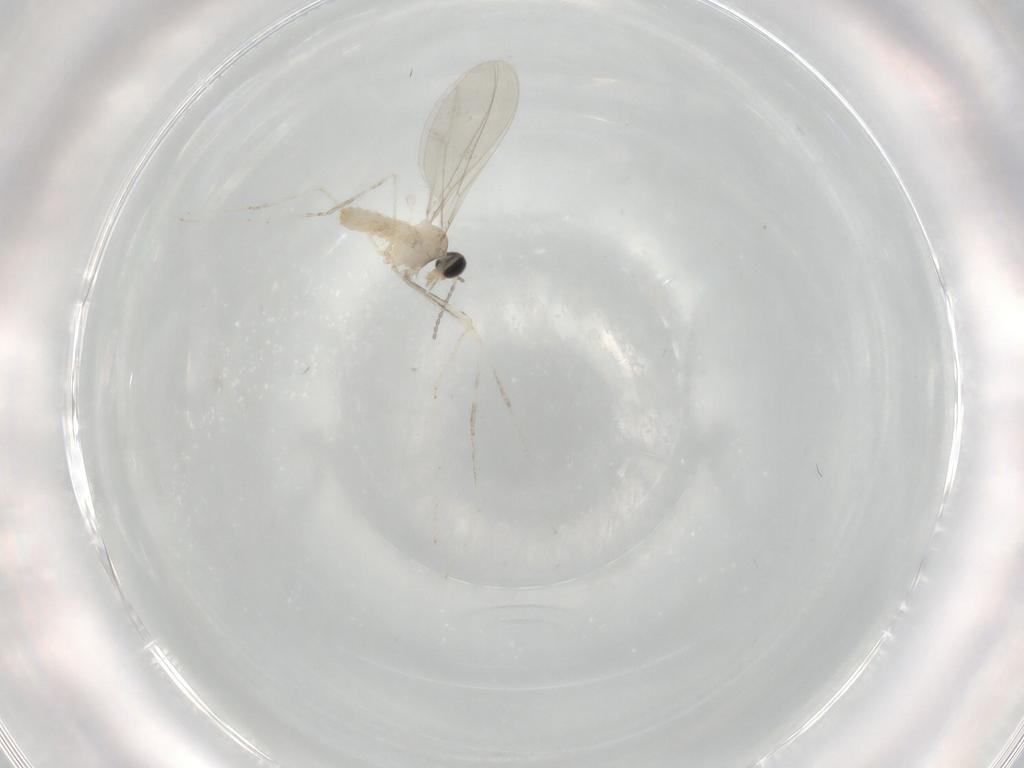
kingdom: Animalia
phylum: Arthropoda
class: Insecta
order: Diptera
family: Cecidomyiidae
